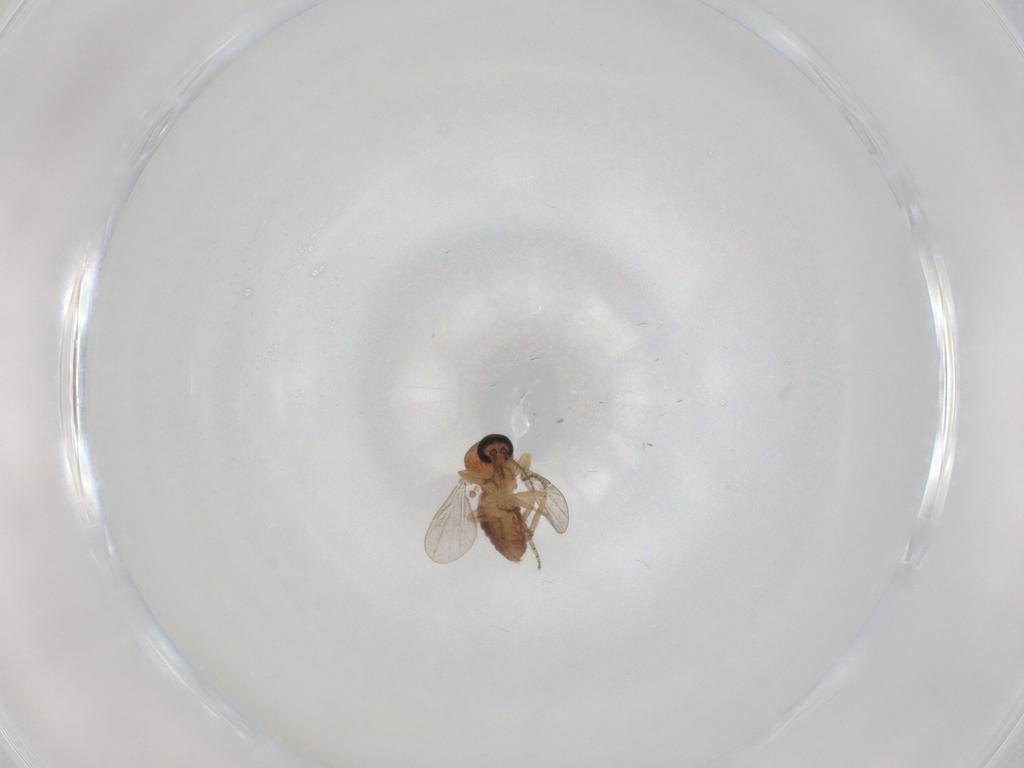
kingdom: Animalia
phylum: Arthropoda
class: Insecta
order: Diptera
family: Ceratopogonidae
